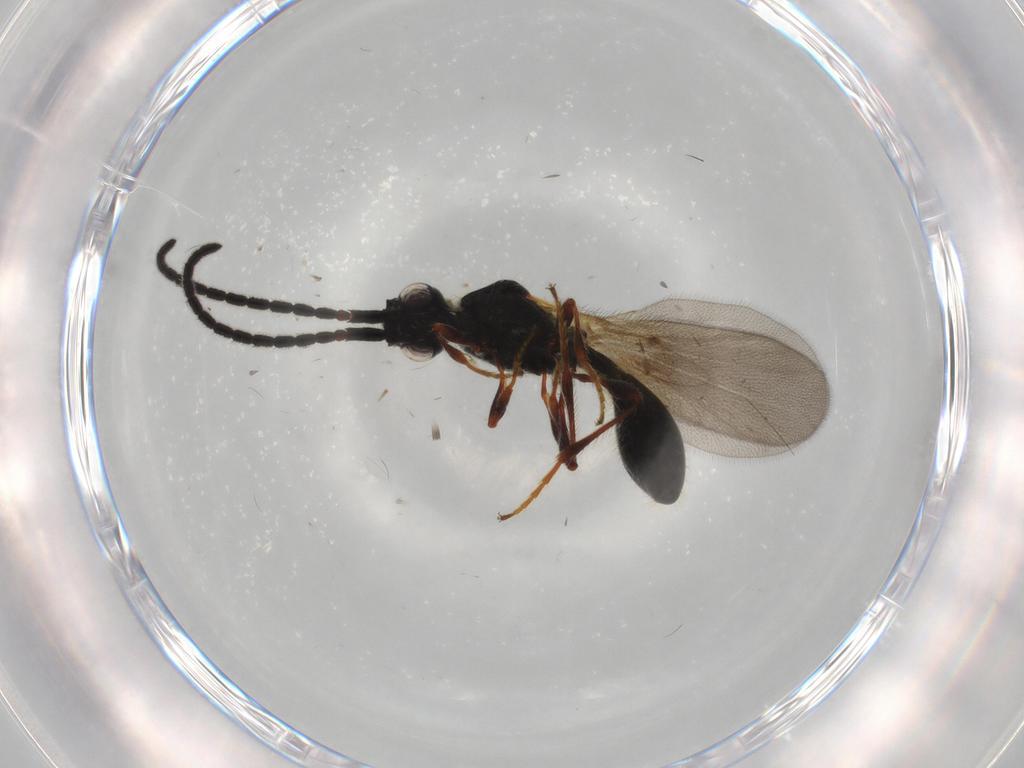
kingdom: Animalia
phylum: Arthropoda
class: Insecta
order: Hymenoptera
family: Diapriidae
